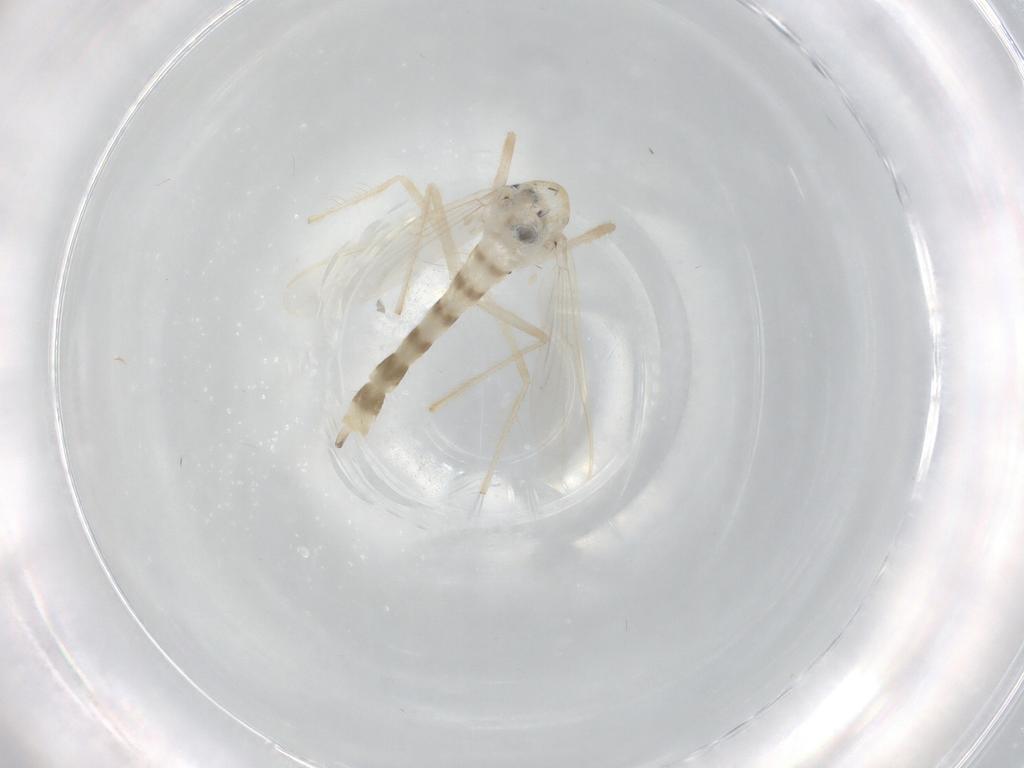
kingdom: Animalia
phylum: Arthropoda
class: Insecta
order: Diptera
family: Chironomidae
